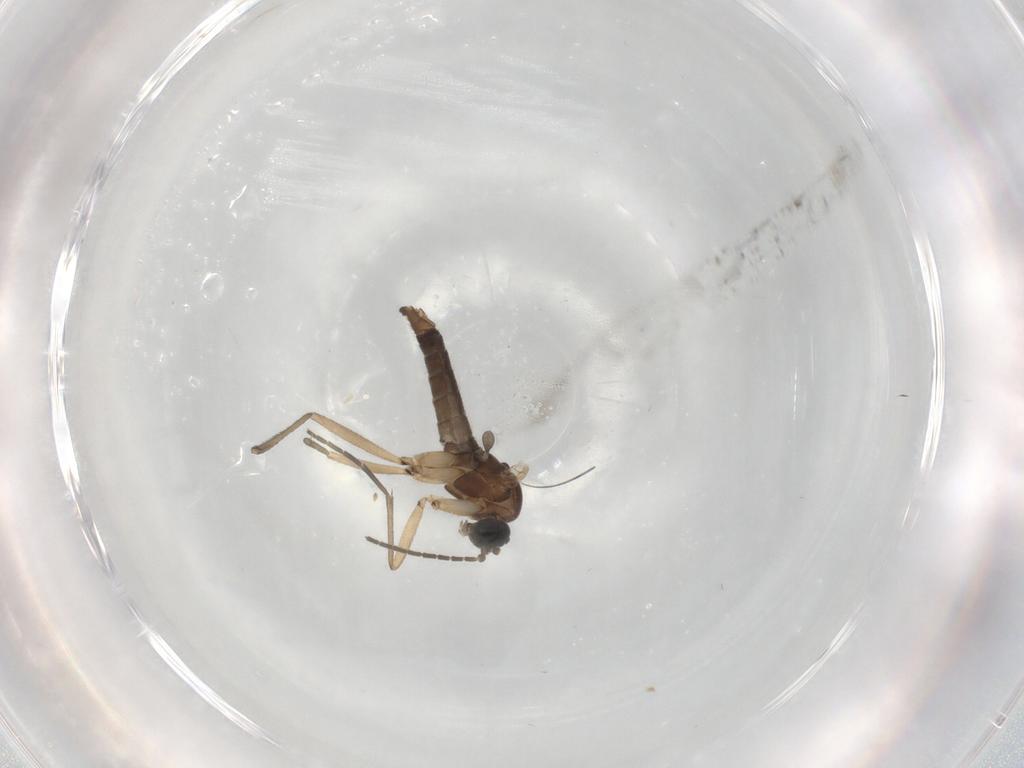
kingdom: Animalia
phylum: Arthropoda
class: Insecta
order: Diptera
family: Sciaridae
